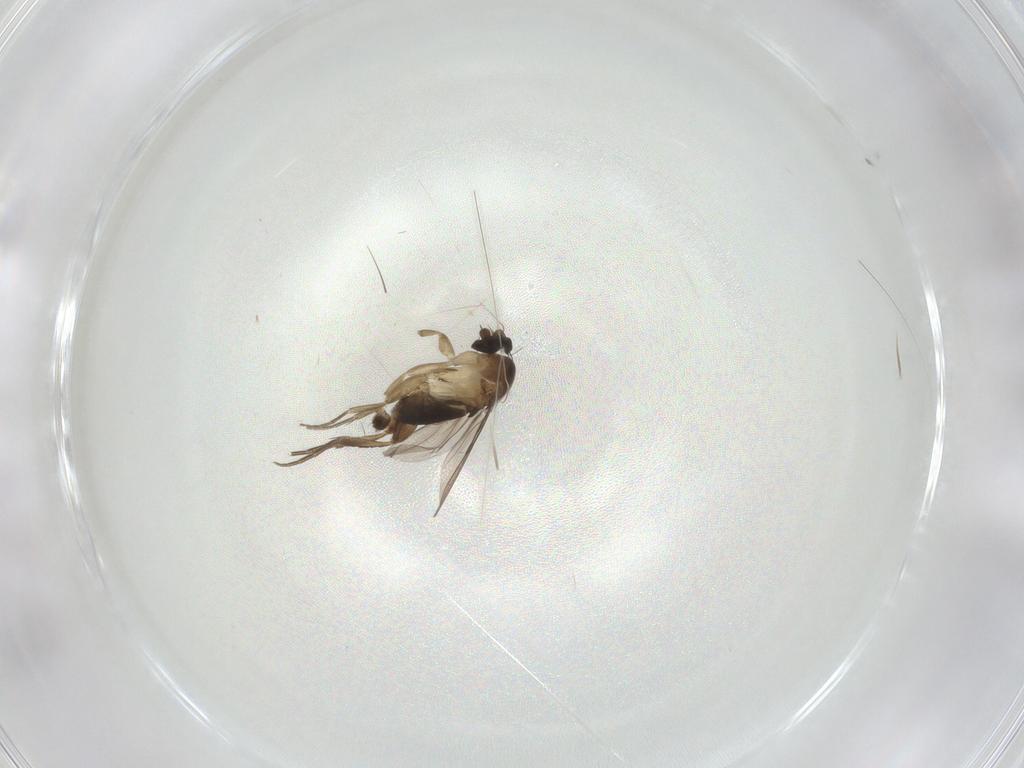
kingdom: Animalia
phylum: Arthropoda
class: Insecta
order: Diptera
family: Phoridae
